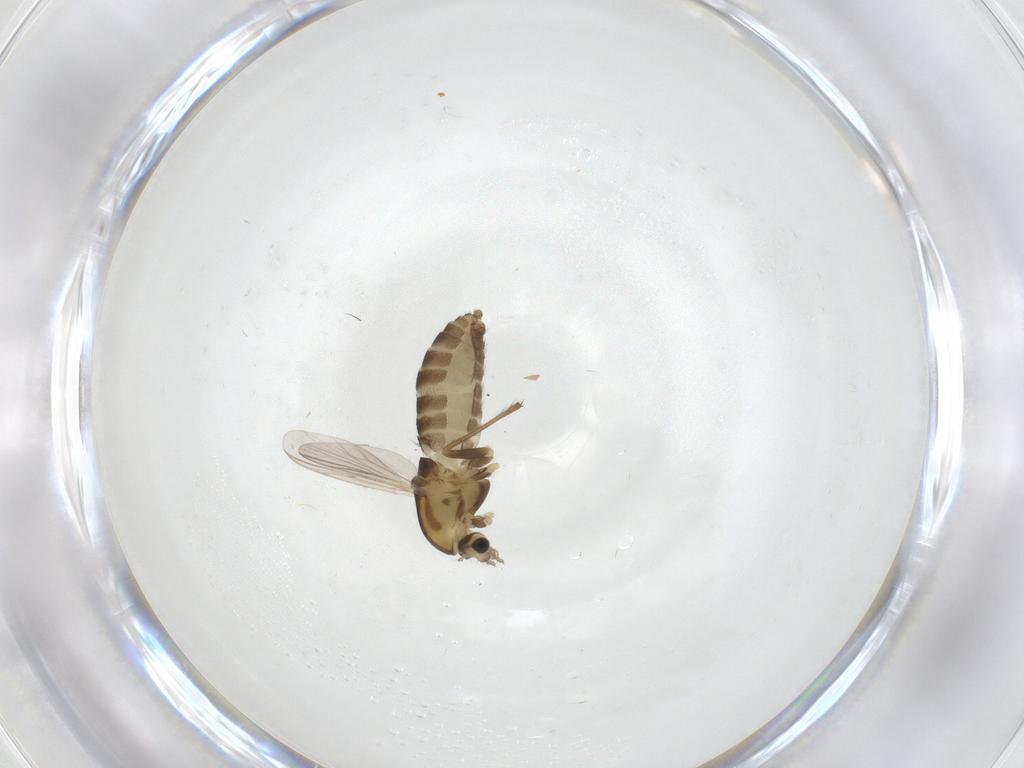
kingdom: Animalia
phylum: Arthropoda
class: Insecta
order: Diptera
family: Chironomidae
